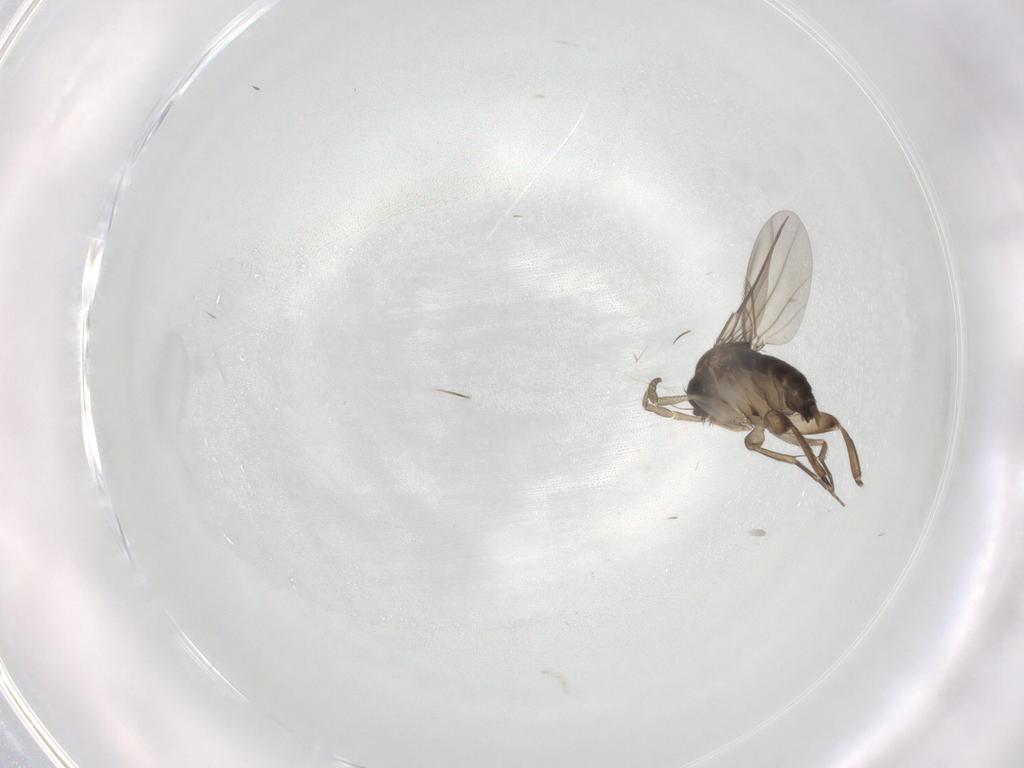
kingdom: Animalia
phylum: Arthropoda
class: Insecta
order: Diptera
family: Phoridae
